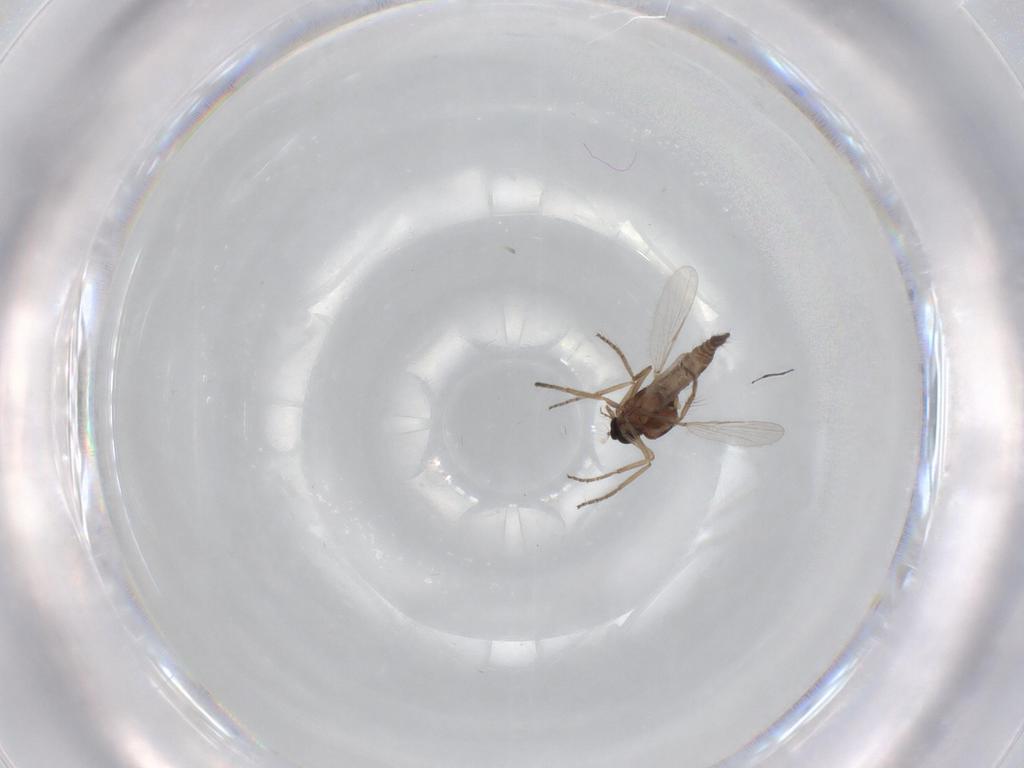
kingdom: Animalia
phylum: Arthropoda
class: Insecta
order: Diptera
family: Ceratopogonidae
